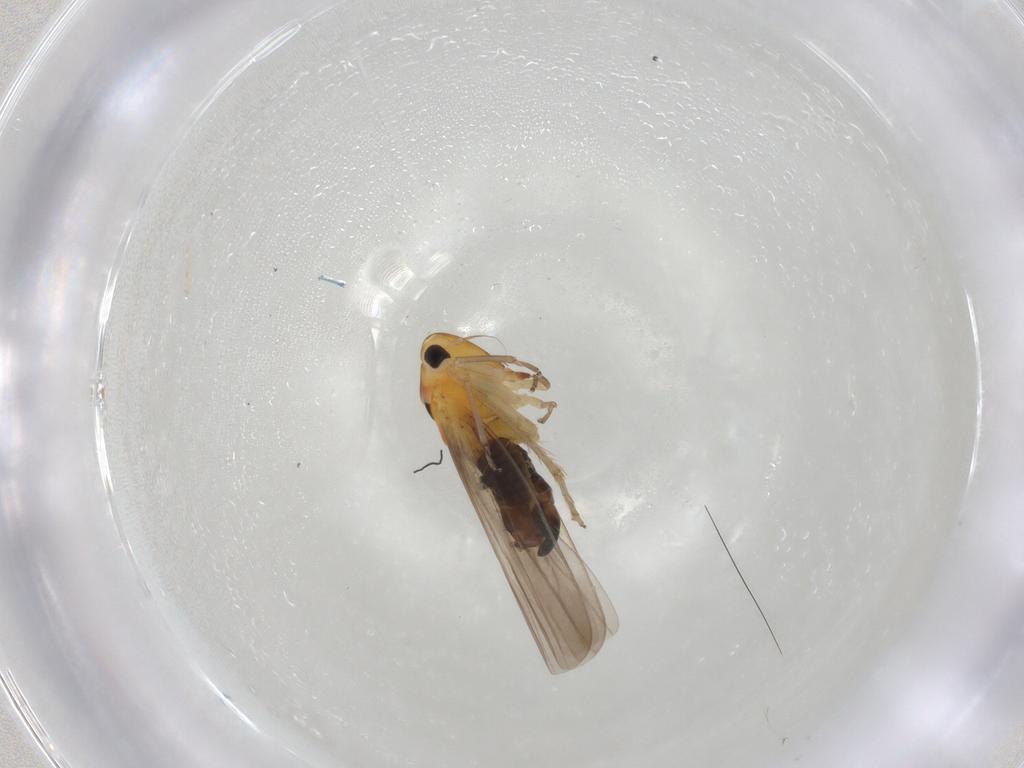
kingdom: Animalia
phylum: Arthropoda
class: Insecta
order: Hemiptera
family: Cicadellidae
